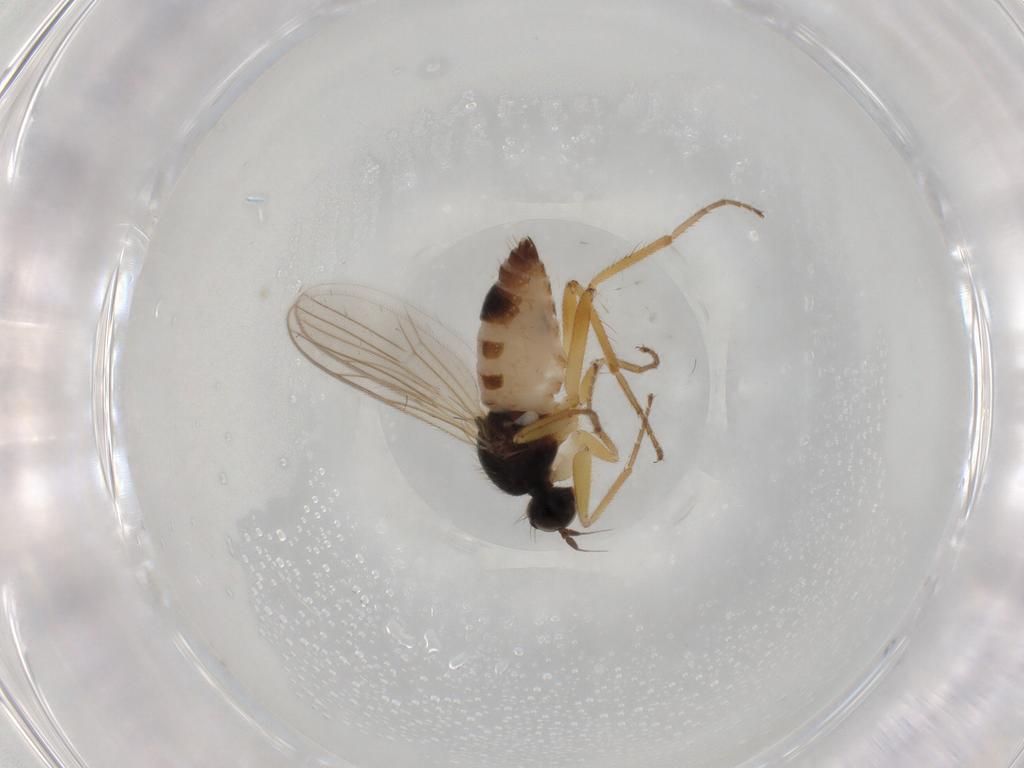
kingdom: Animalia
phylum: Arthropoda
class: Insecta
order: Diptera
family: Hybotidae
